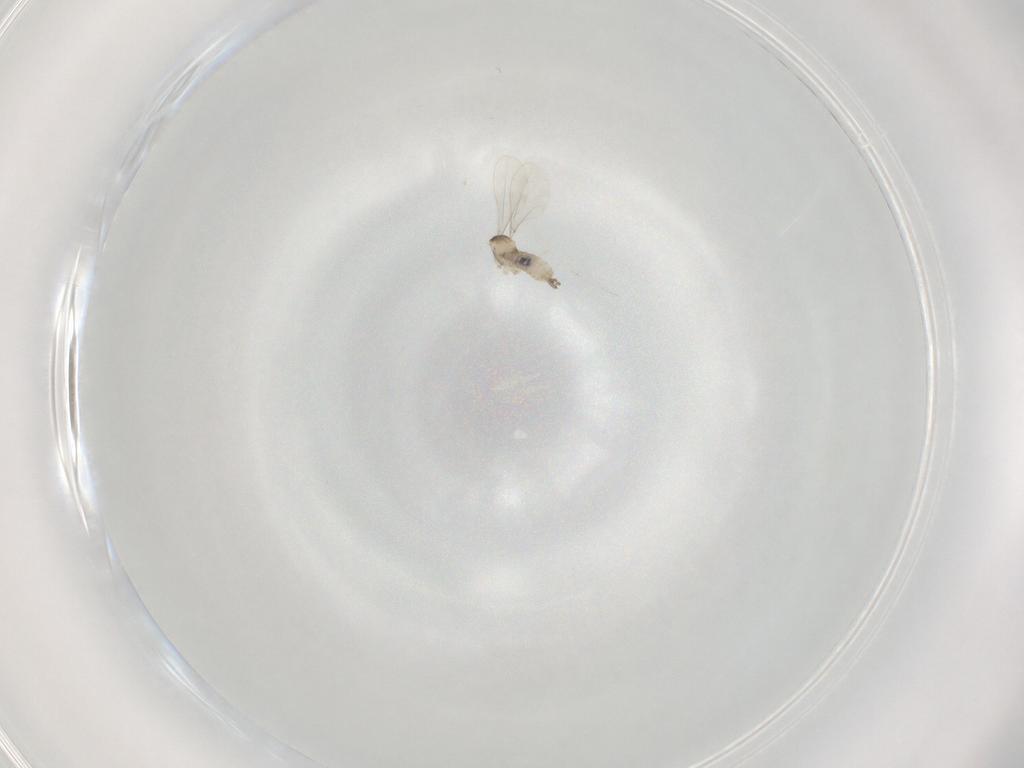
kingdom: Animalia
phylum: Arthropoda
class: Insecta
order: Diptera
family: Cecidomyiidae
